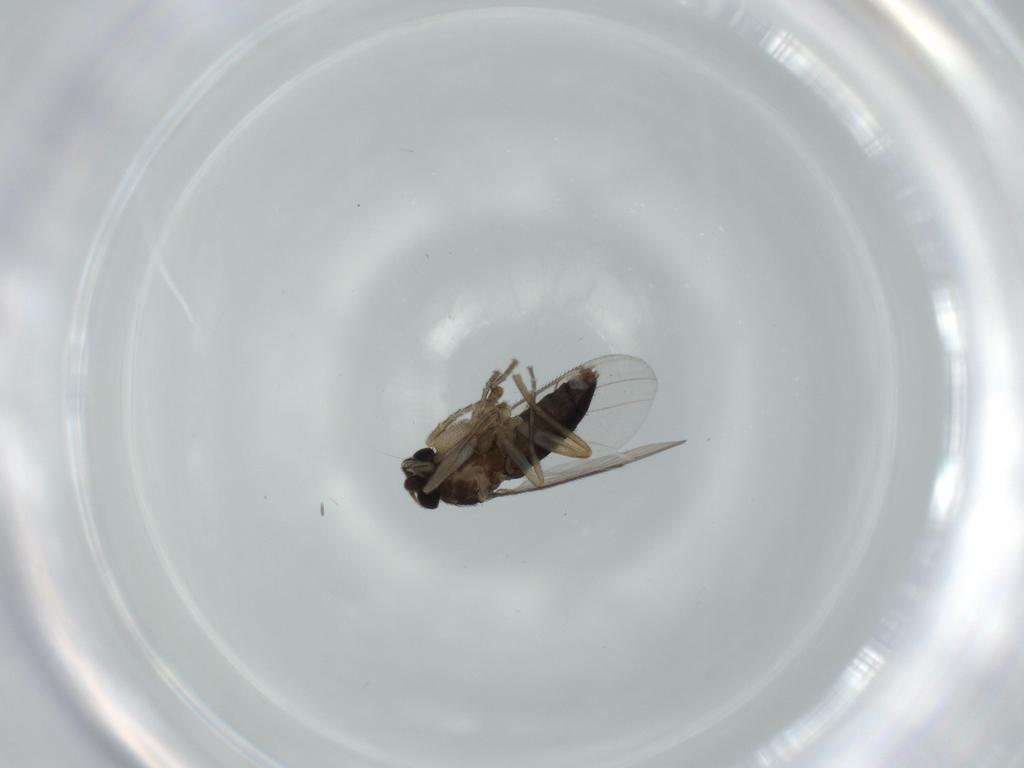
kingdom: Animalia
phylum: Arthropoda
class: Insecta
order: Diptera
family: Phoridae
